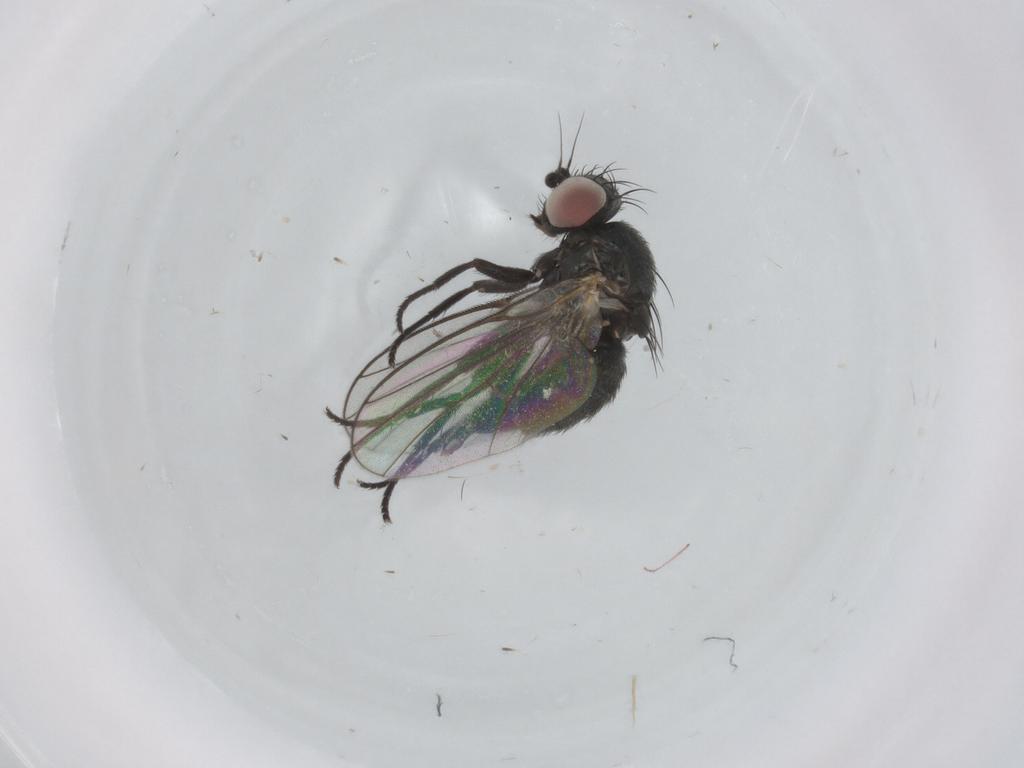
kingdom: Animalia
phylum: Arthropoda
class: Insecta
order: Diptera
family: Agromyzidae
